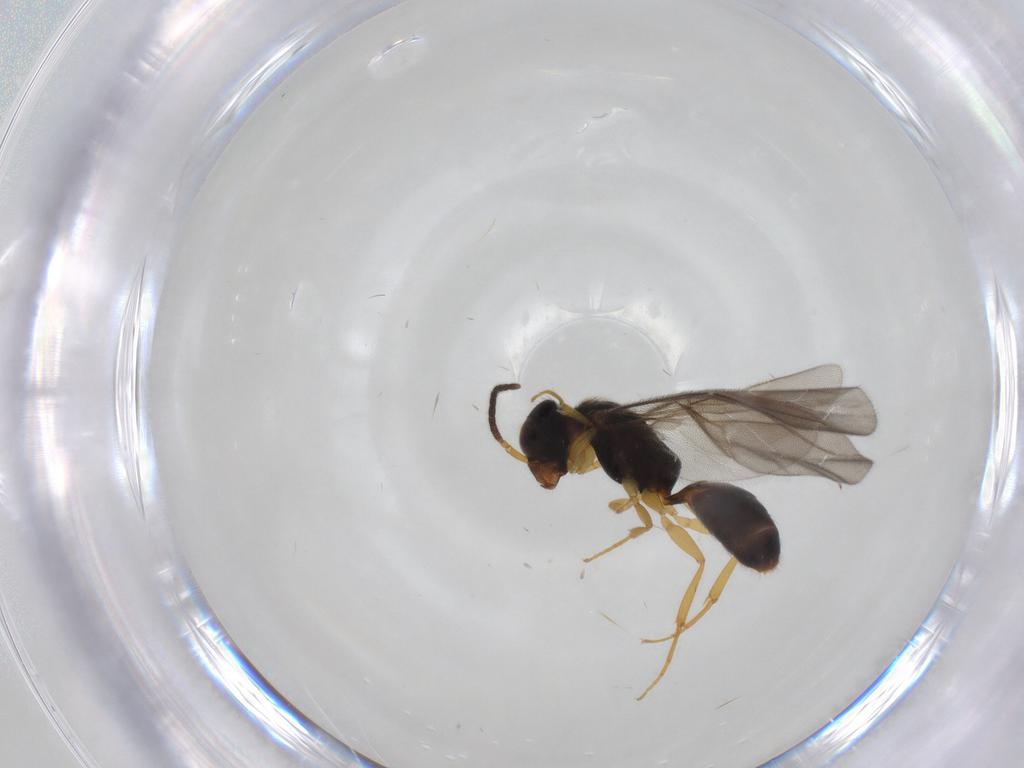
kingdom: Animalia
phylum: Arthropoda
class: Insecta
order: Hymenoptera
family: Bethylidae
